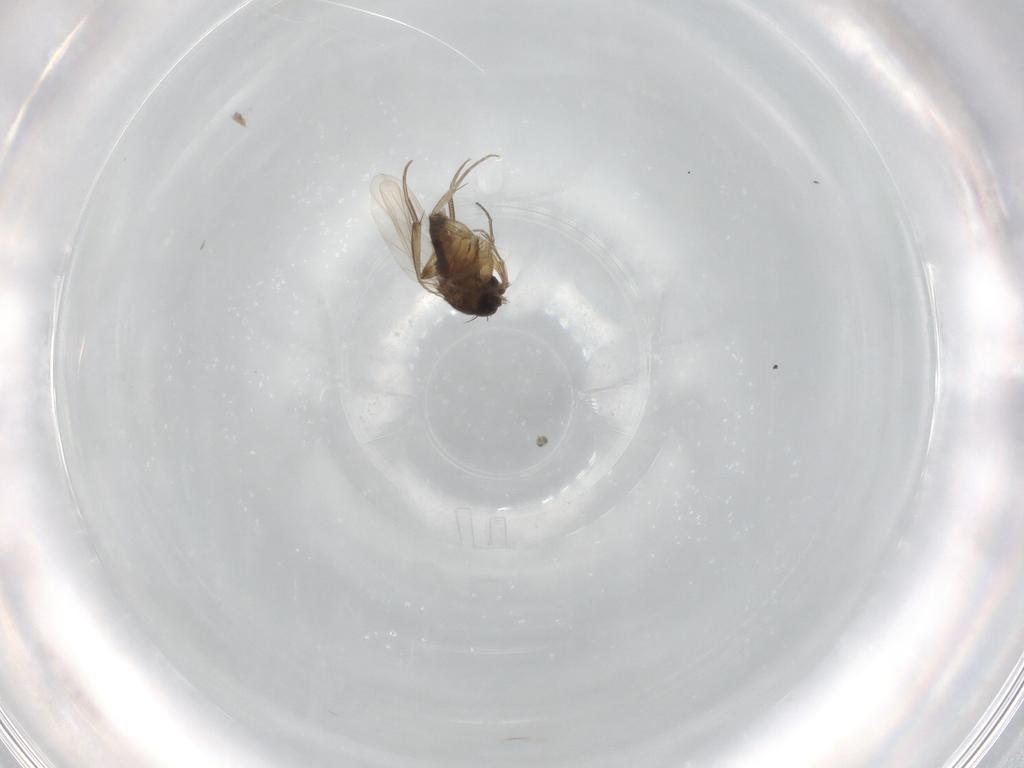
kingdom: Animalia
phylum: Arthropoda
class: Insecta
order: Diptera
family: Phoridae
